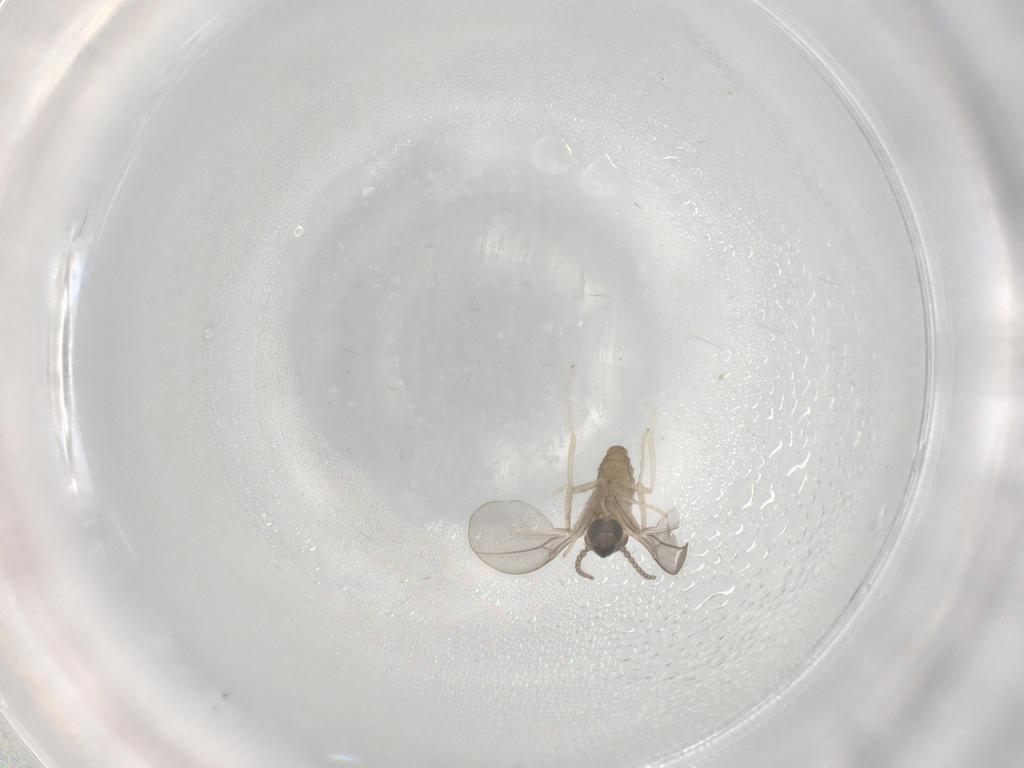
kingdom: Animalia
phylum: Arthropoda
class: Insecta
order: Diptera
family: Cecidomyiidae
